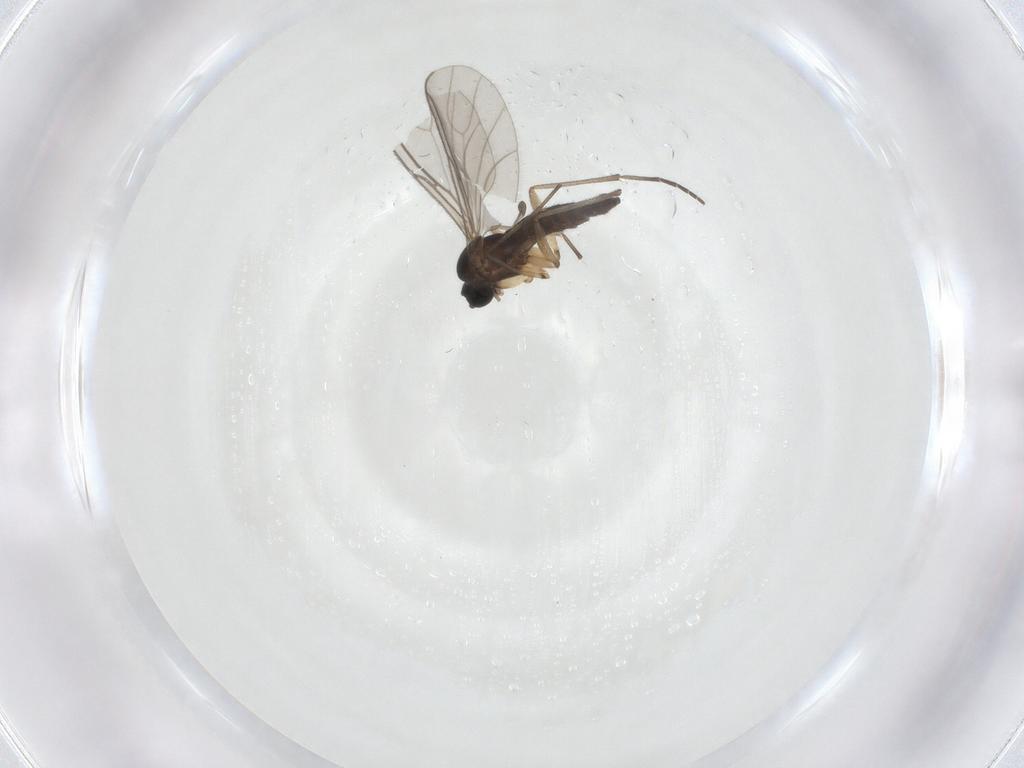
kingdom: Animalia
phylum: Arthropoda
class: Insecta
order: Diptera
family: Sciaridae
